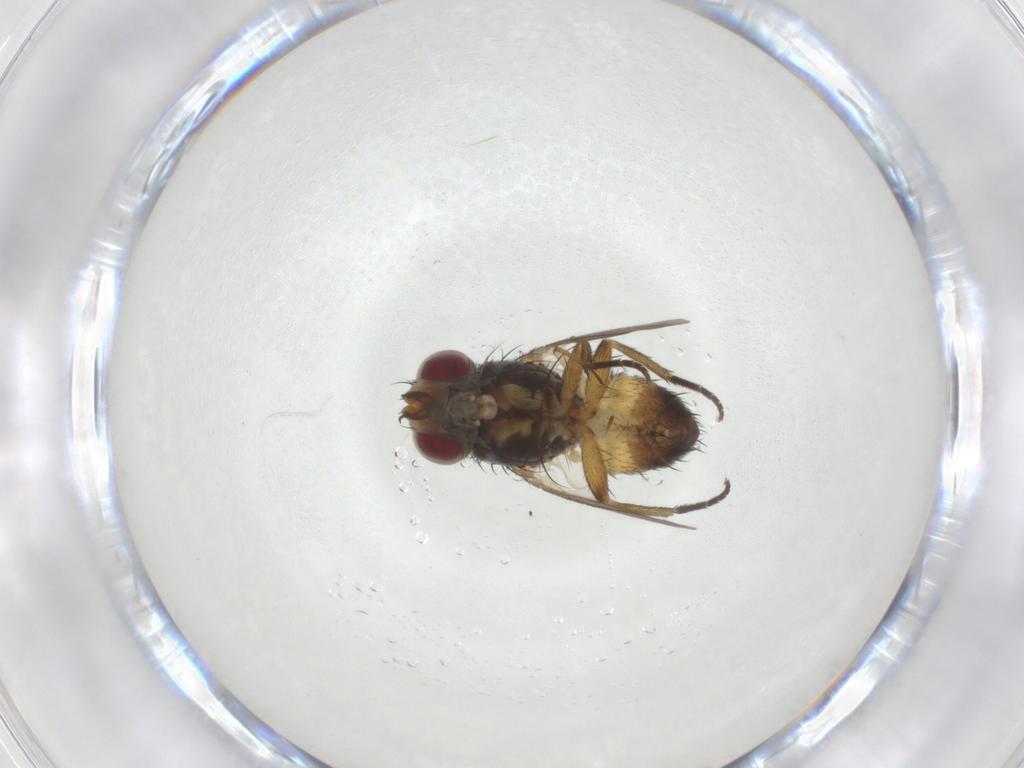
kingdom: Animalia
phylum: Arthropoda
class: Insecta
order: Diptera
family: Tachinidae
